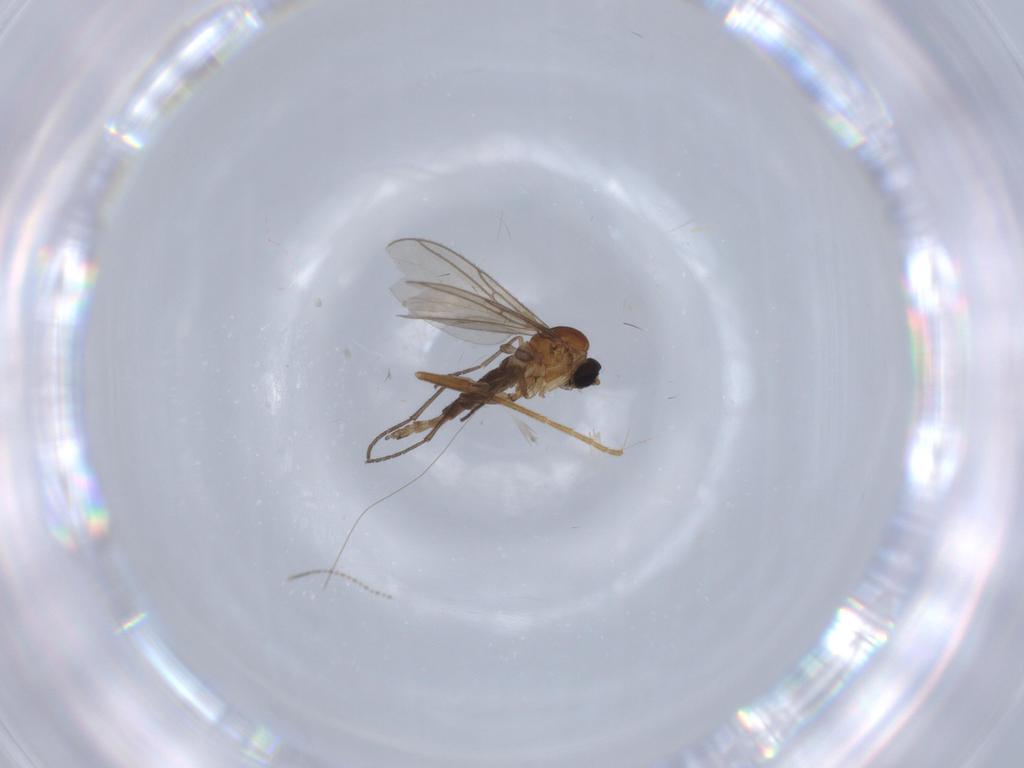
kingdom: Animalia
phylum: Arthropoda
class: Insecta
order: Diptera
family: Sciaridae
